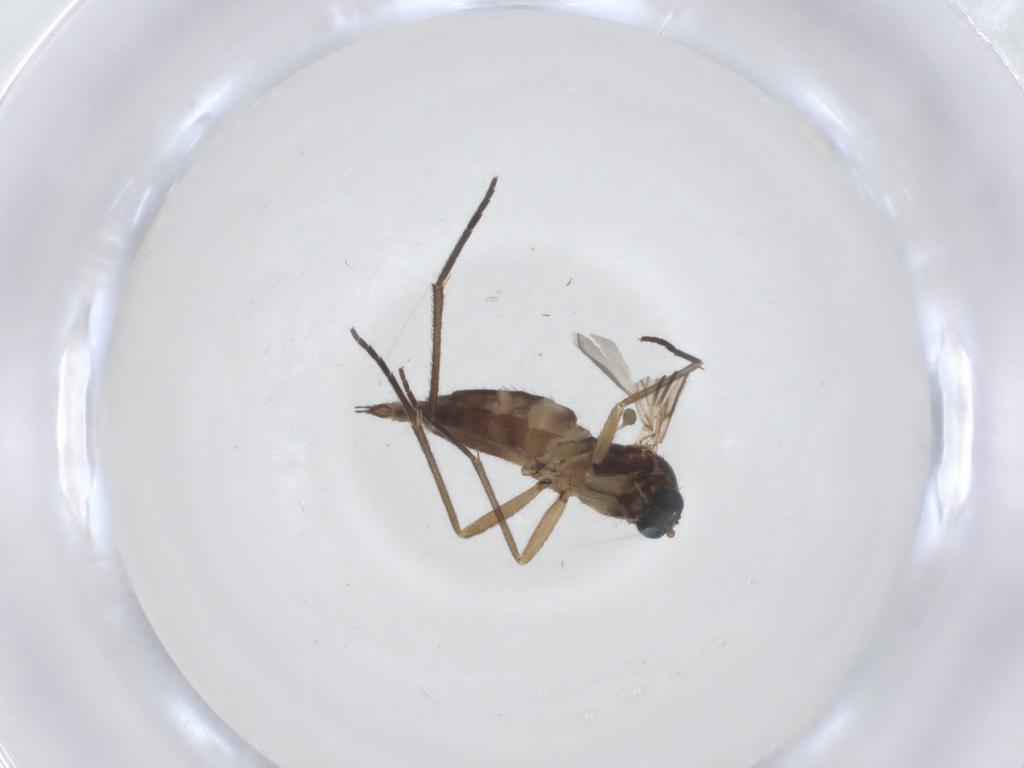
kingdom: Animalia
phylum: Arthropoda
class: Insecta
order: Diptera
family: Sciaridae
